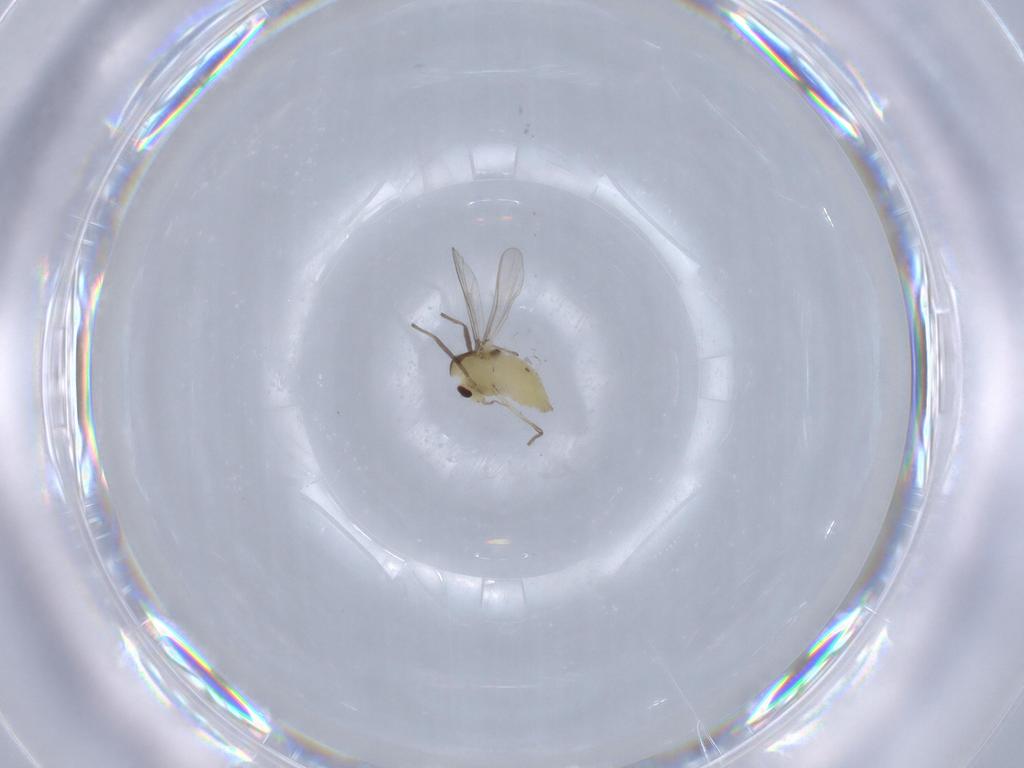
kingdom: Animalia
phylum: Arthropoda
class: Insecta
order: Diptera
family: Chironomidae
